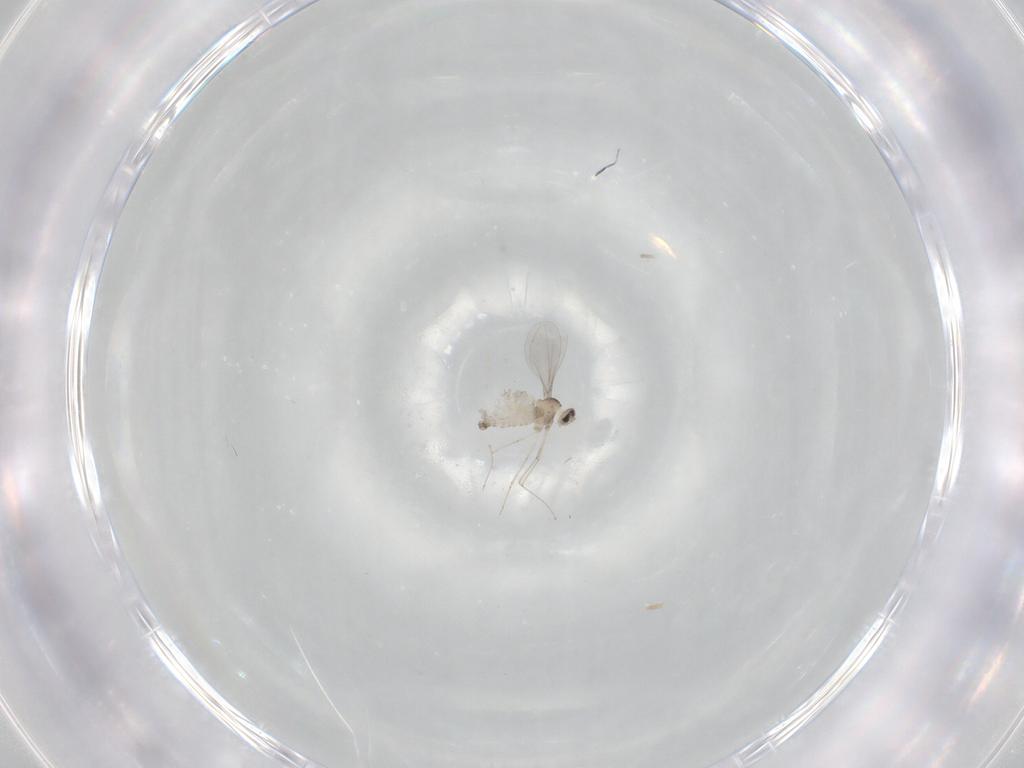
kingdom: Animalia
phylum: Arthropoda
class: Insecta
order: Diptera
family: Cecidomyiidae
